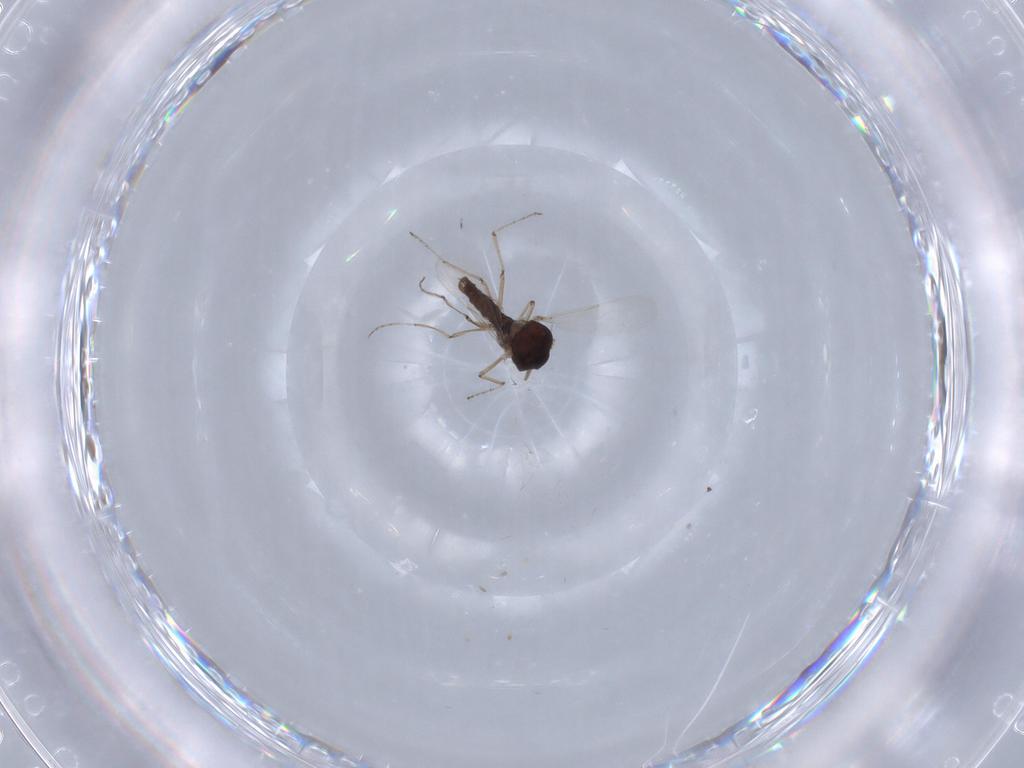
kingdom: Animalia
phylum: Arthropoda
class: Insecta
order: Diptera
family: Ceratopogonidae
